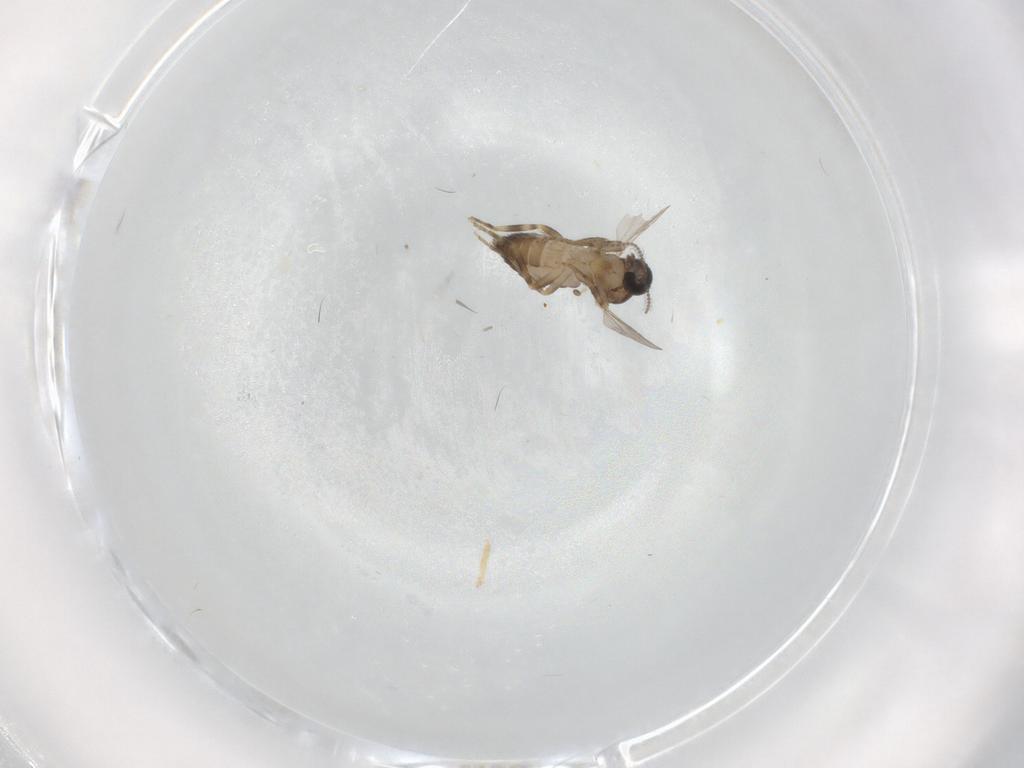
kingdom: Animalia
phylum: Arthropoda
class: Insecta
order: Diptera
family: Ceratopogonidae
